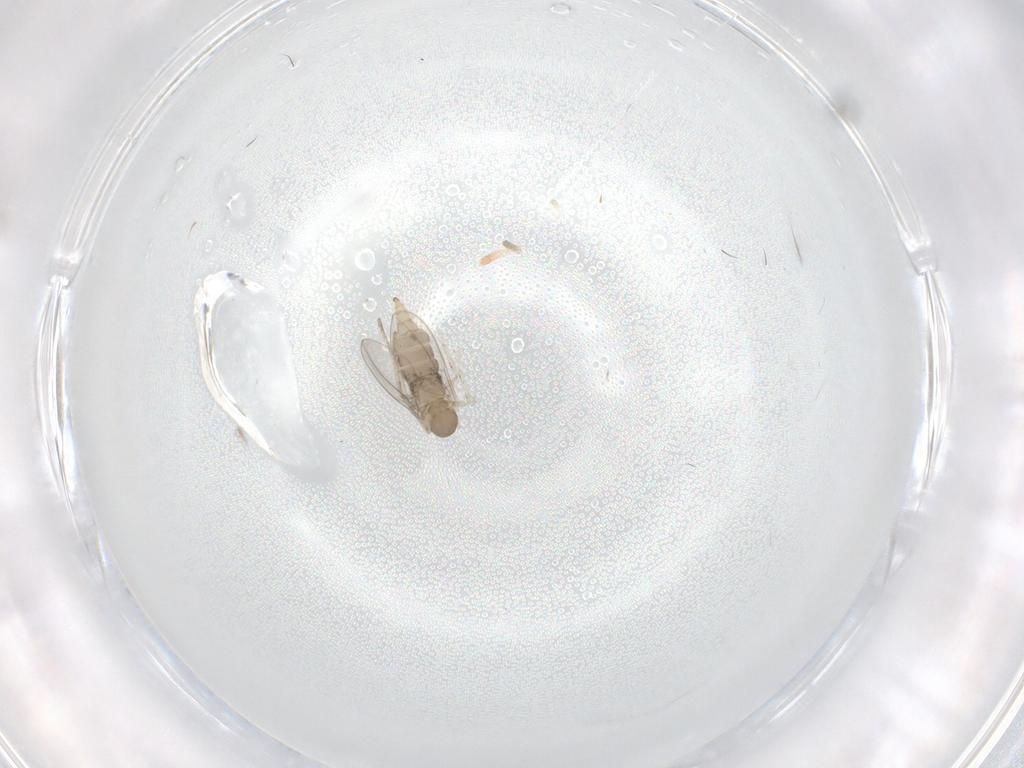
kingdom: Animalia
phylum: Arthropoda
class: Insecta
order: Diptera
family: Cecidomyiidae
